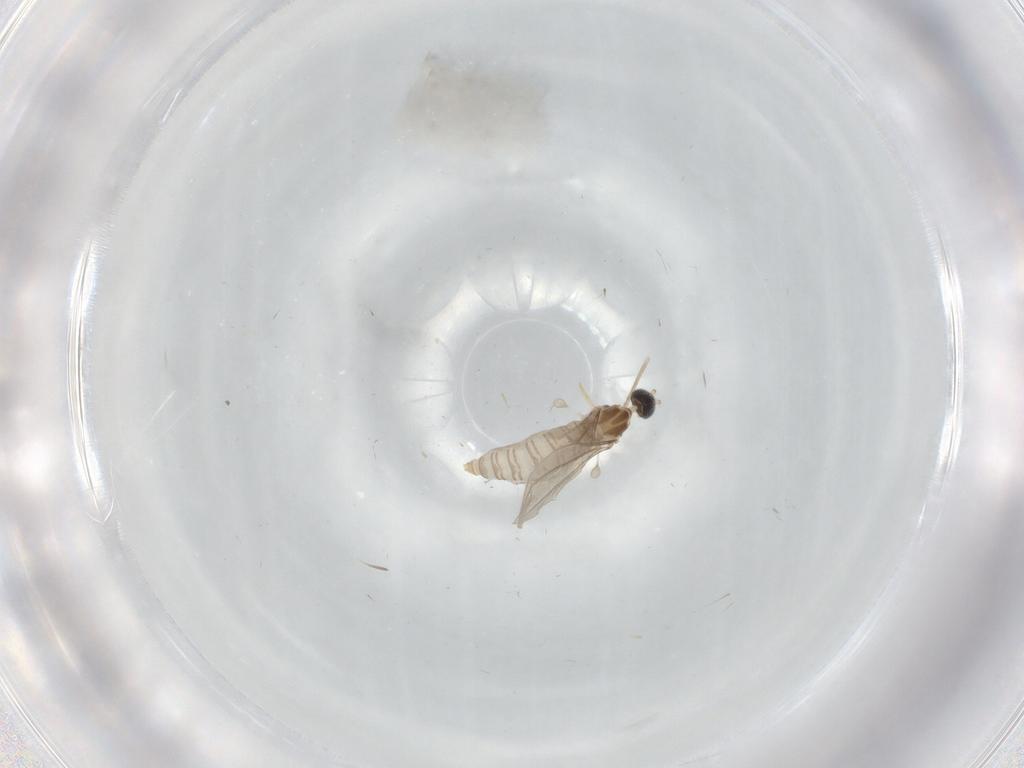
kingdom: Animalia
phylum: Arthropoda
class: Insecta
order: Diptera
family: Cecidomyiidae
